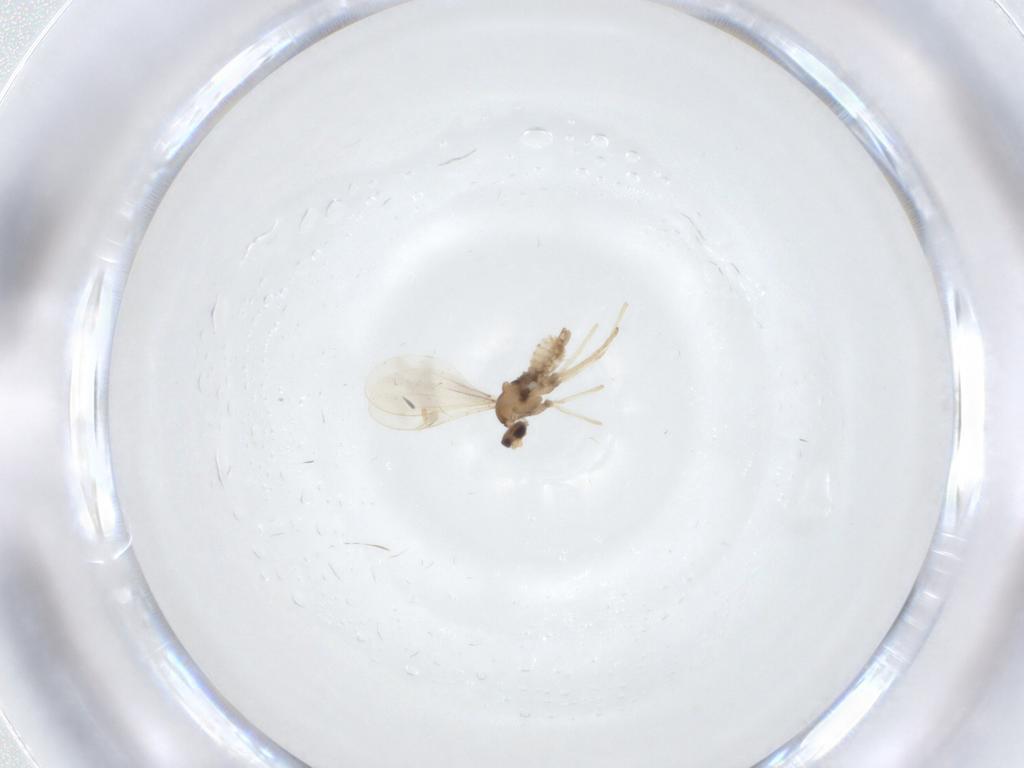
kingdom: Animalia
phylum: Arthropoda
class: Insecta
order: Diptera
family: Cecidomyiidae
